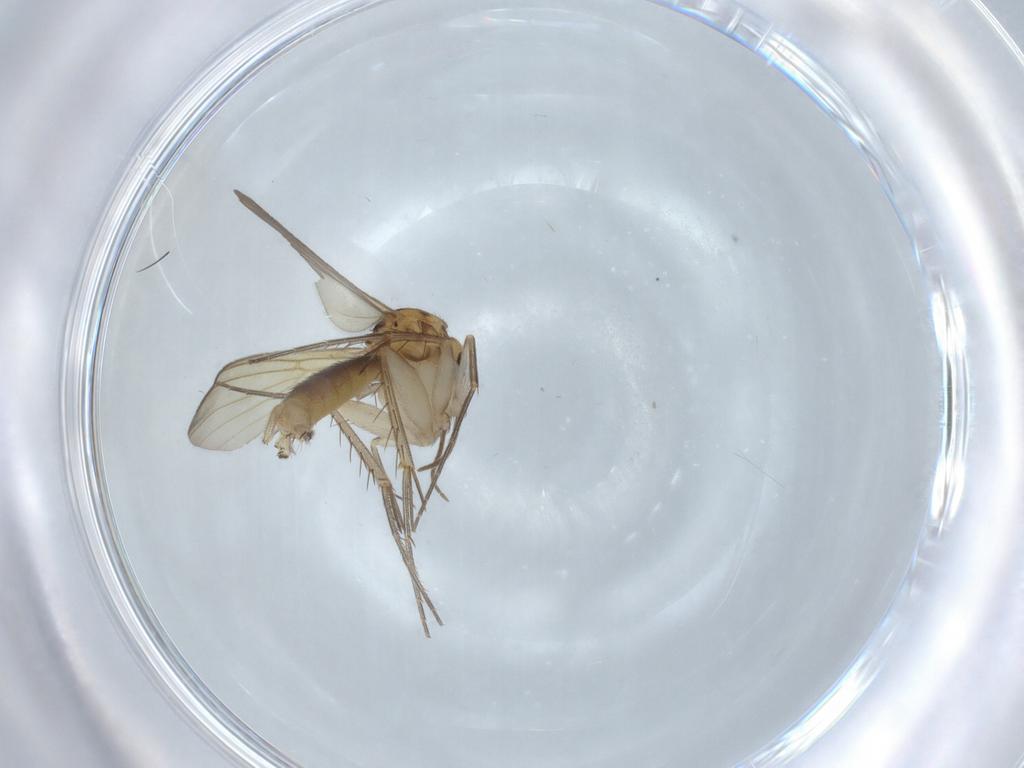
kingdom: Animalia
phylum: Arthropoda
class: Insecta
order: Diptera
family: Mycetophilidae
